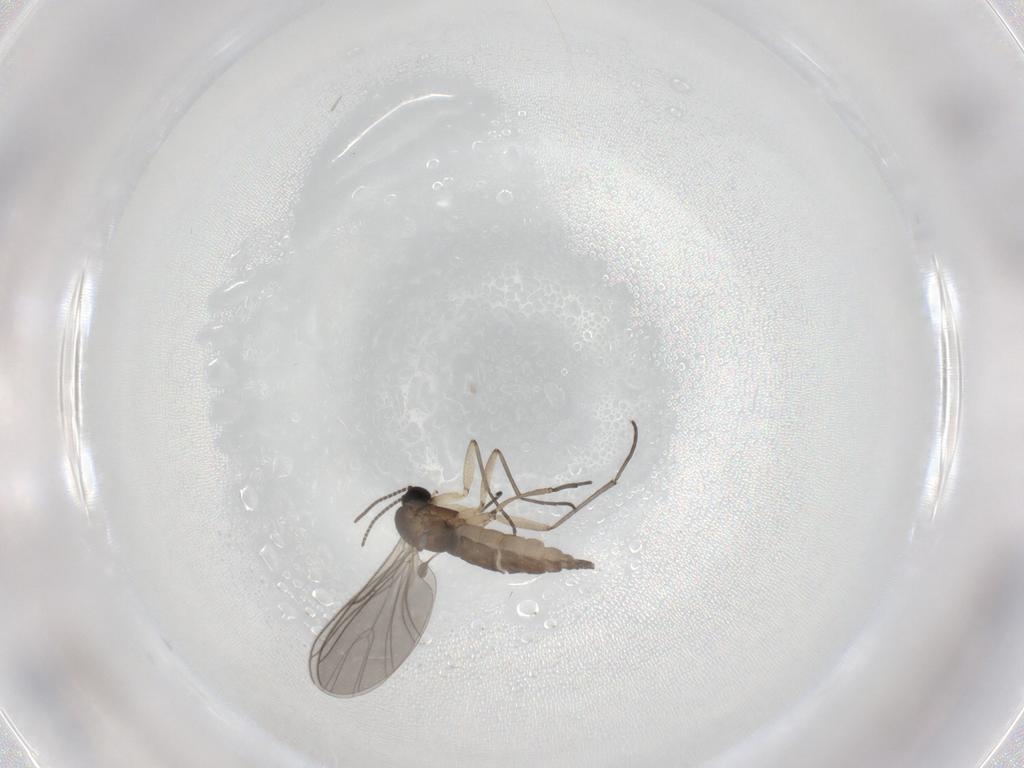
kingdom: Animalia
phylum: Arthropoda
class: Insecta
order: Diptera
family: Sciaridae
